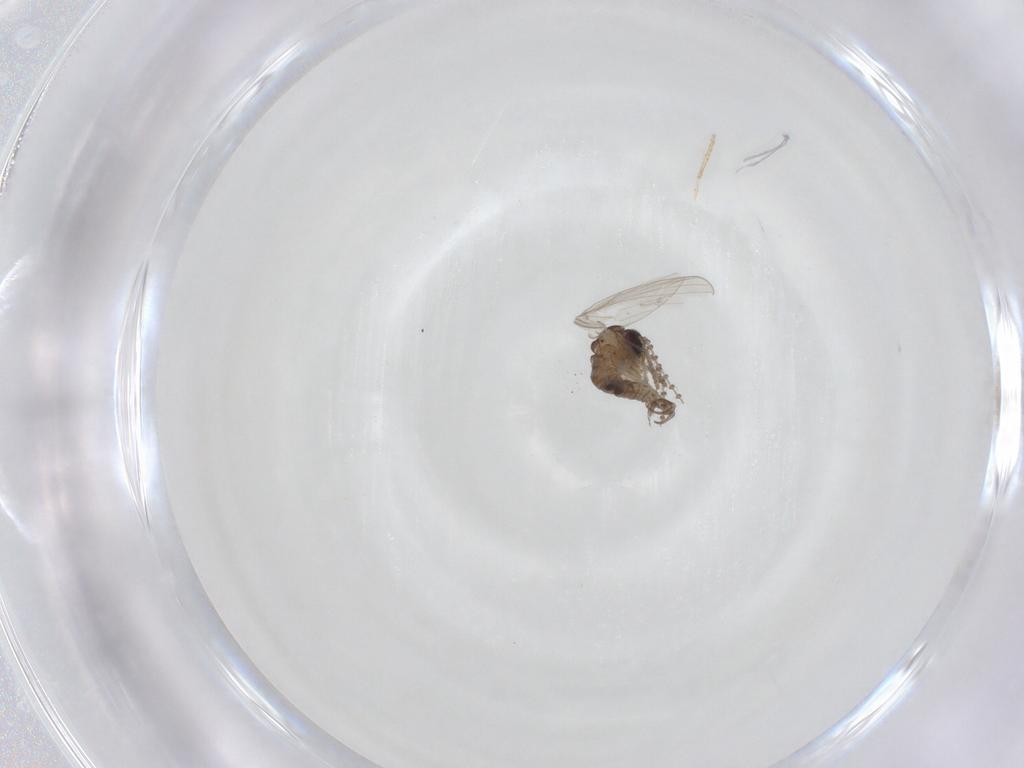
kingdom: Animalia
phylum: Arthropoda
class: Insecta
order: Diptera
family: Psychodidae
